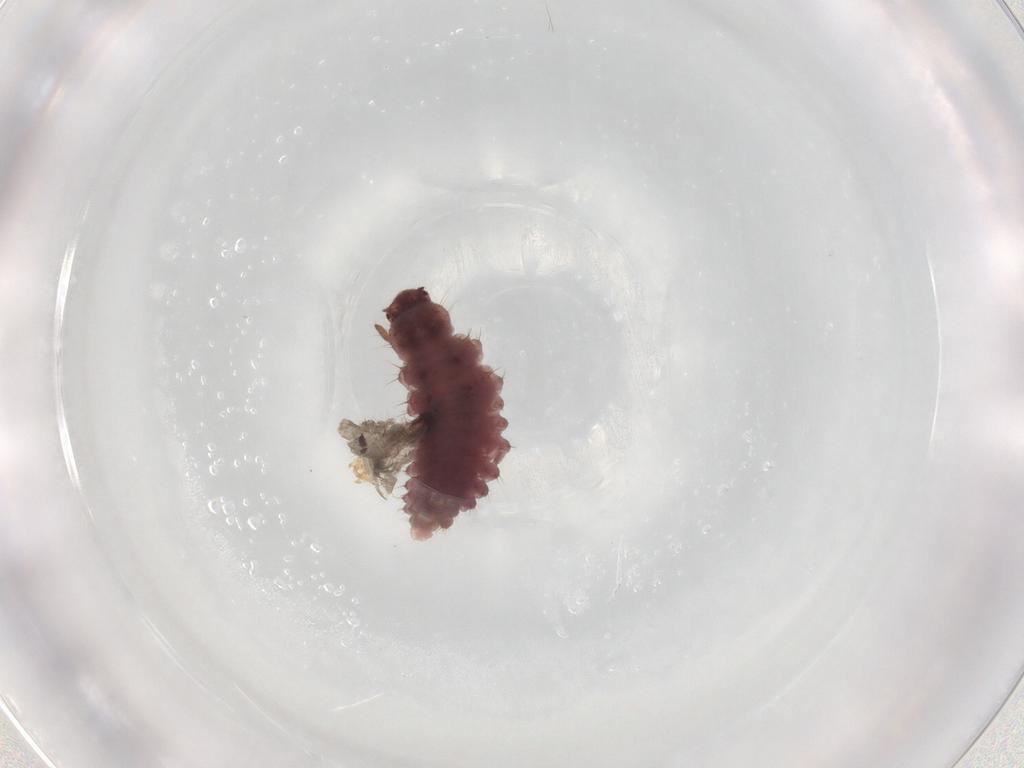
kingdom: Animalia
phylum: Arthropoda
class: Insecta
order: Coleoptera
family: Coccinellidae
